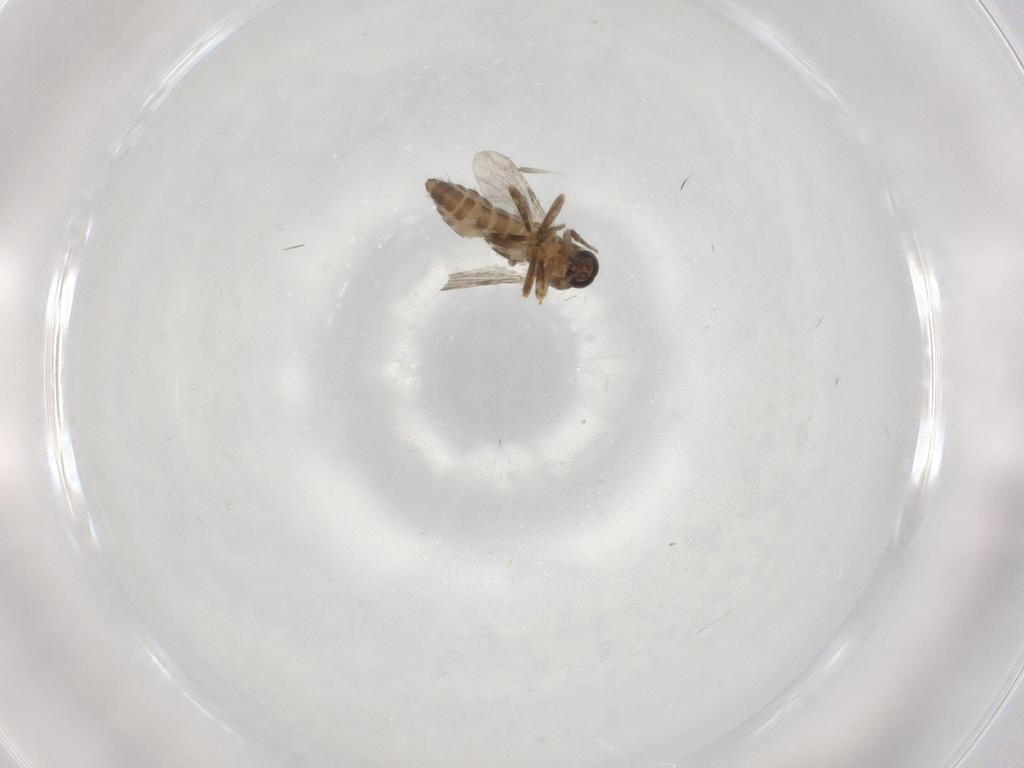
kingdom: Animalia
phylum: Arthropoda
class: Insecta
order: Diptera
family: Ceratopogonidae
